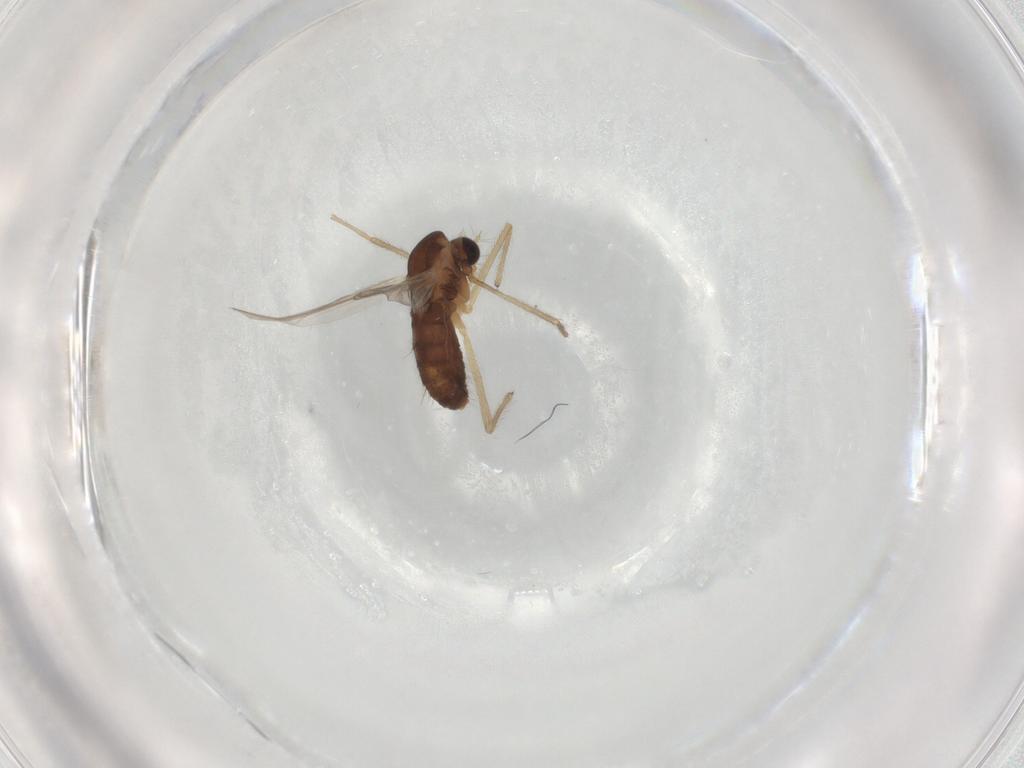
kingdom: Animalia
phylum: Arthropoda
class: Insecta
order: Diptera
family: Chironomidae
